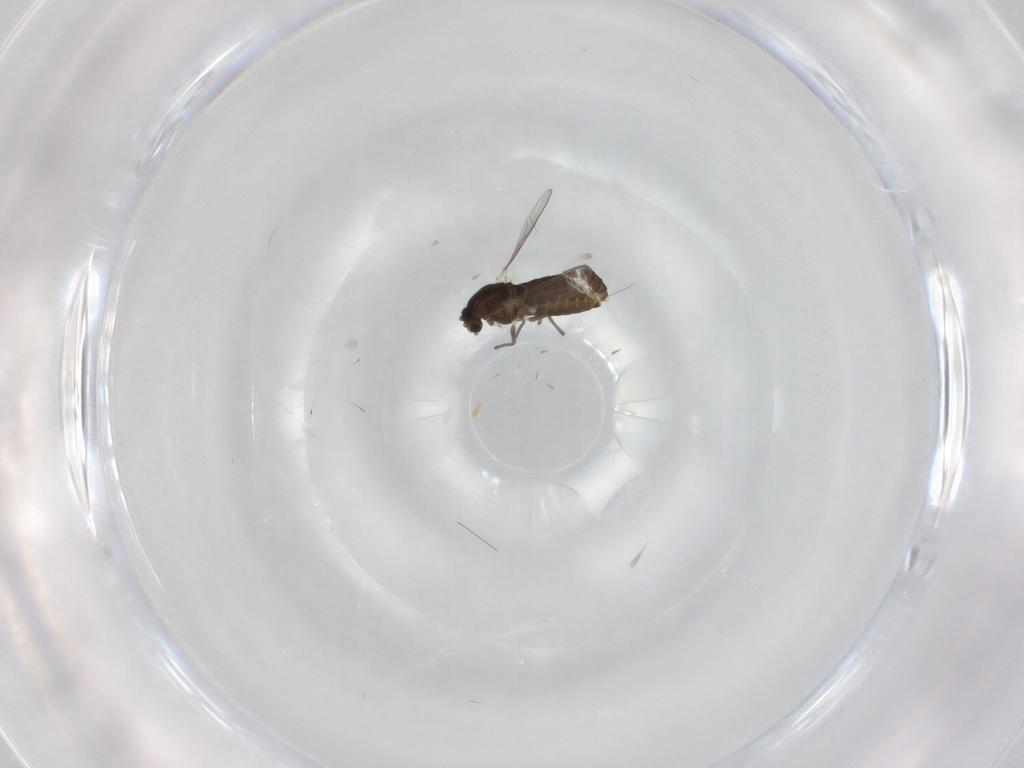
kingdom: Animalia
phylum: Arthropoda
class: Insecta
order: Diptera
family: Chironomidae
